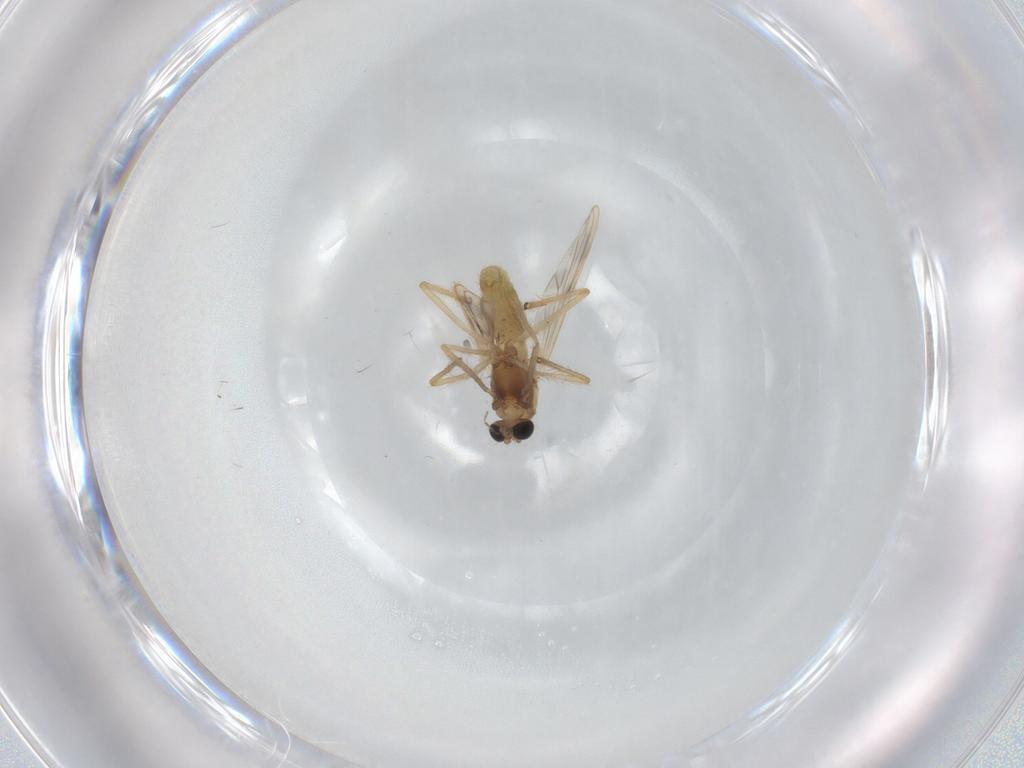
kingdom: Animalia
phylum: Arthropoda
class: Insecta
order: Diptera
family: Chironomidae
